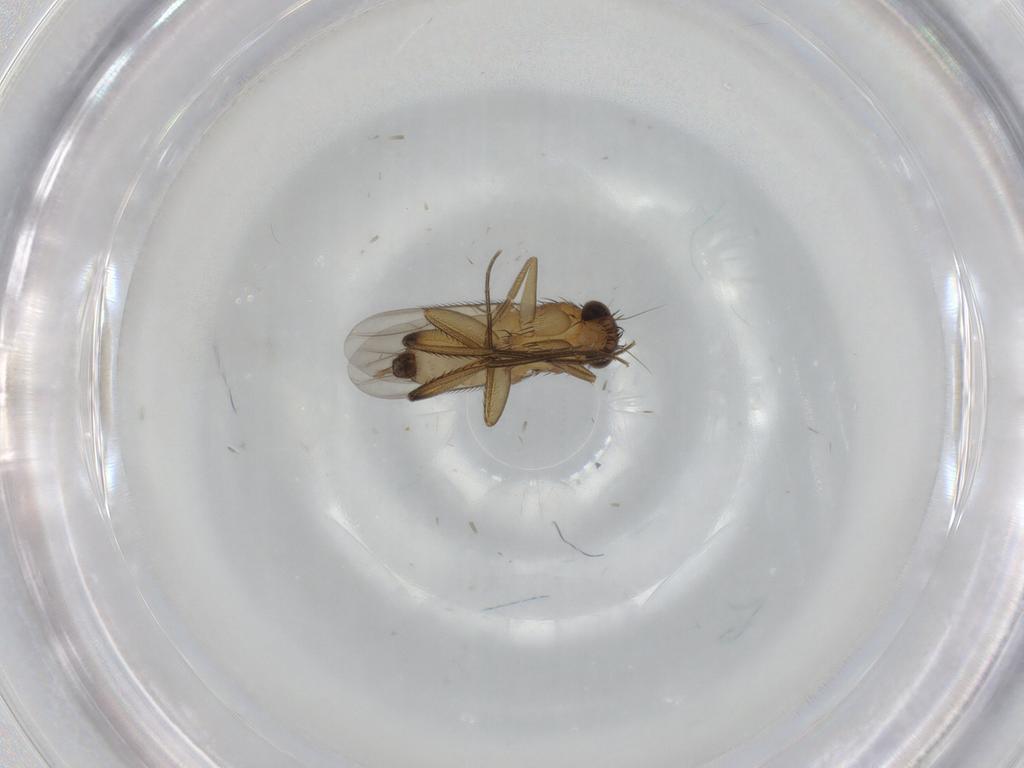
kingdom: Animalia
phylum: Arthropoda
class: Insecta
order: Diptera
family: Phoridae
